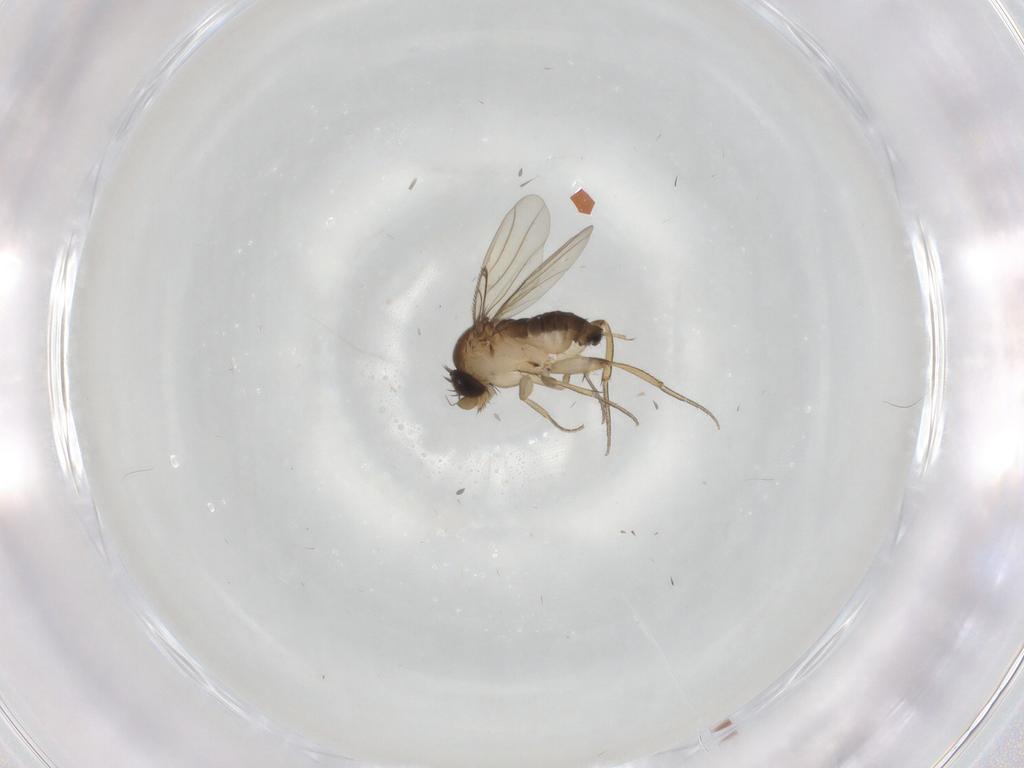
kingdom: Animalia
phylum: Arthropoda
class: Insecta
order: Diptera
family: Phoridae
